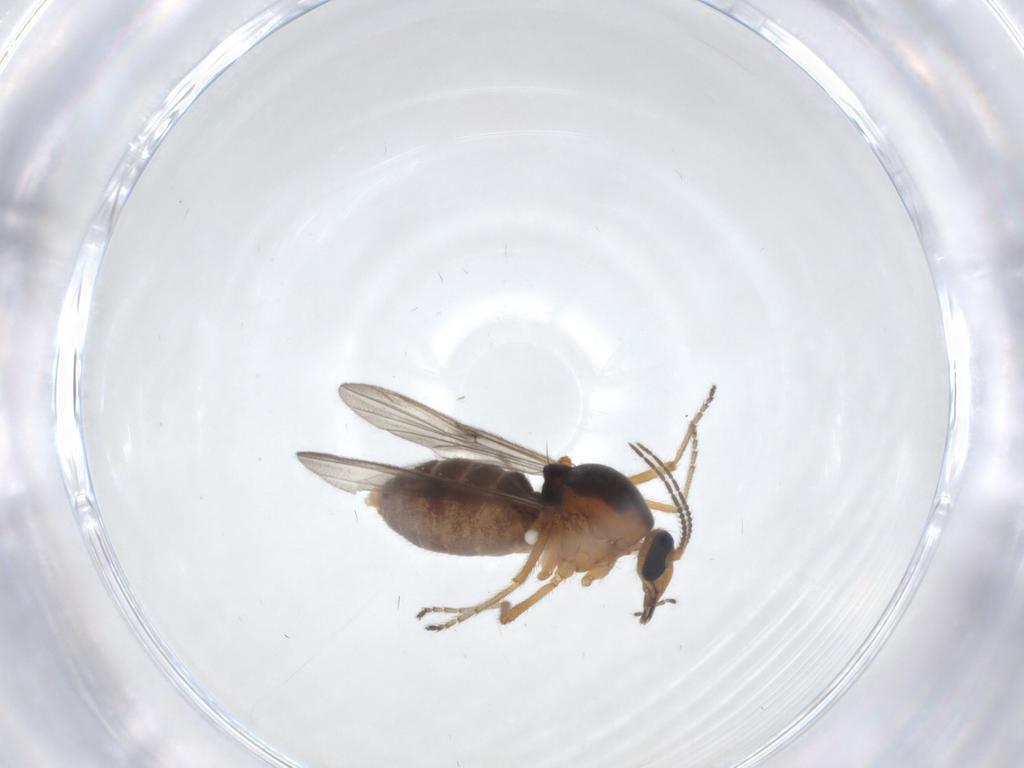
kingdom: Animalia
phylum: Arthropoda
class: Insecta
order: Diptera
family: Ceratopogonidae
